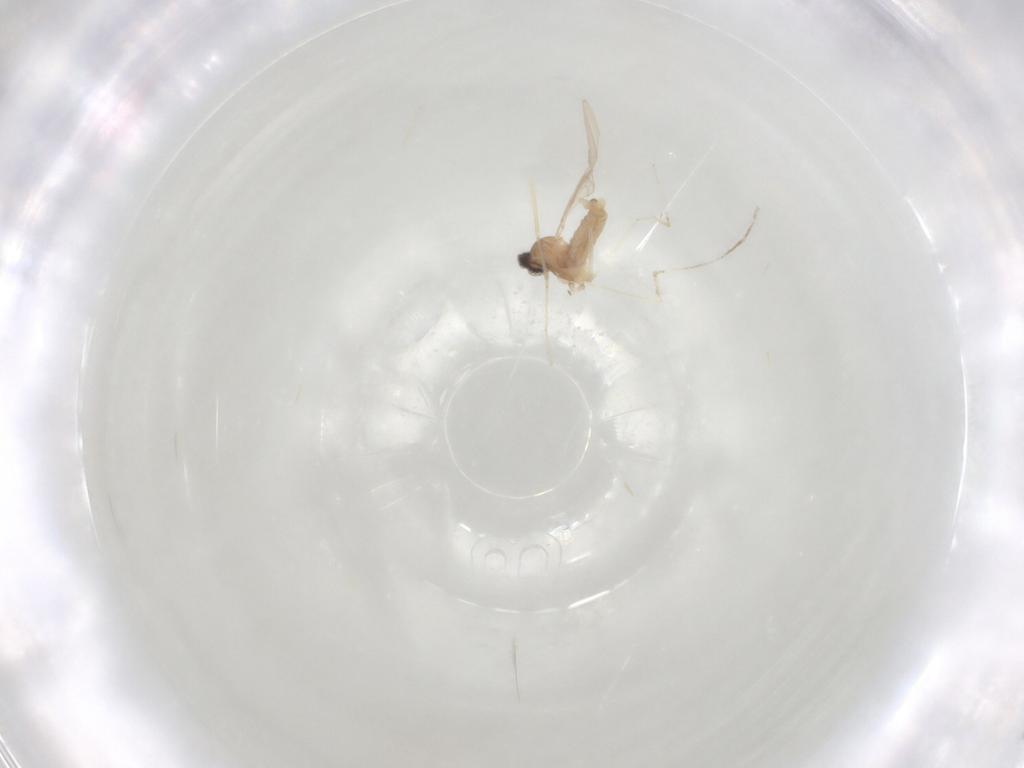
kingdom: Animalia
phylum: Arthropoda
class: Insecta
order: Diptera
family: Cecidomyiidae
